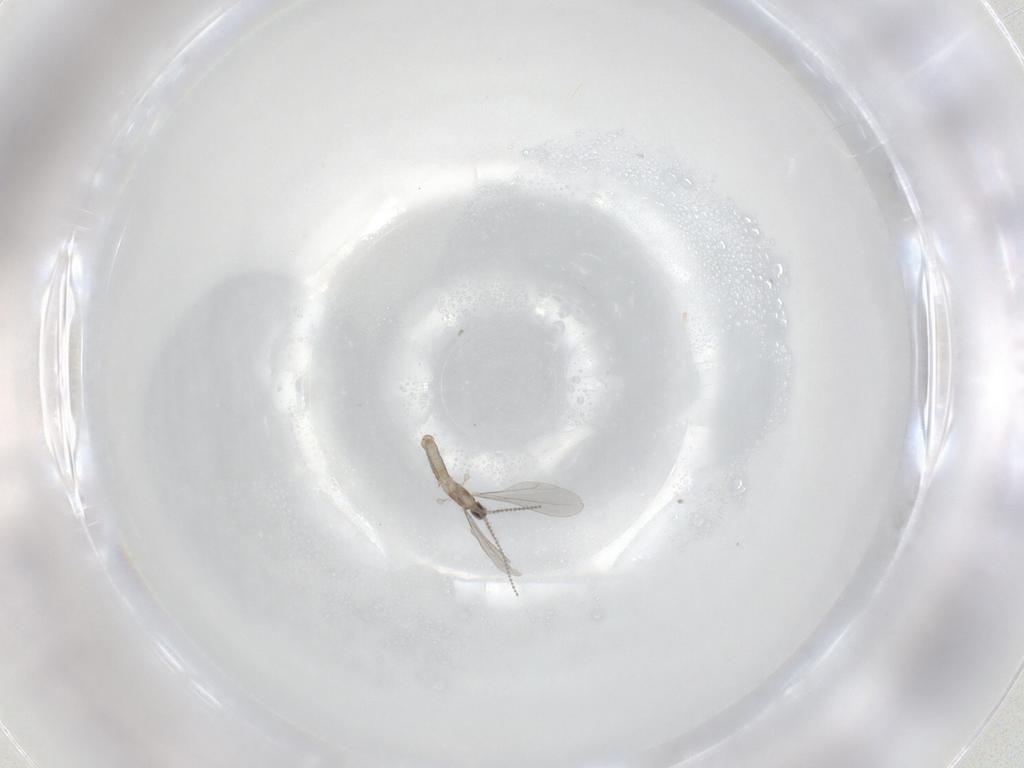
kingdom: Animalia
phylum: Arthropoda
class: Insecta
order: Diptera
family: Cecidomyiidae
